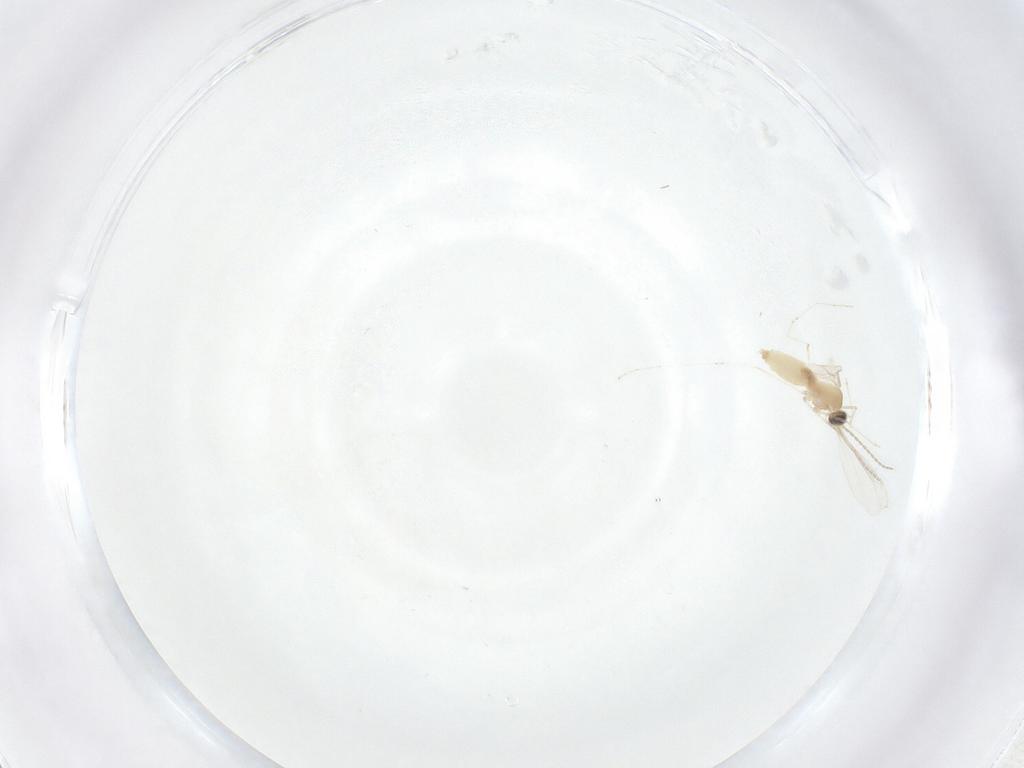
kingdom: Animalia
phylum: Arthropoda
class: Insecta
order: Diptera
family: Cecidomyiidae
